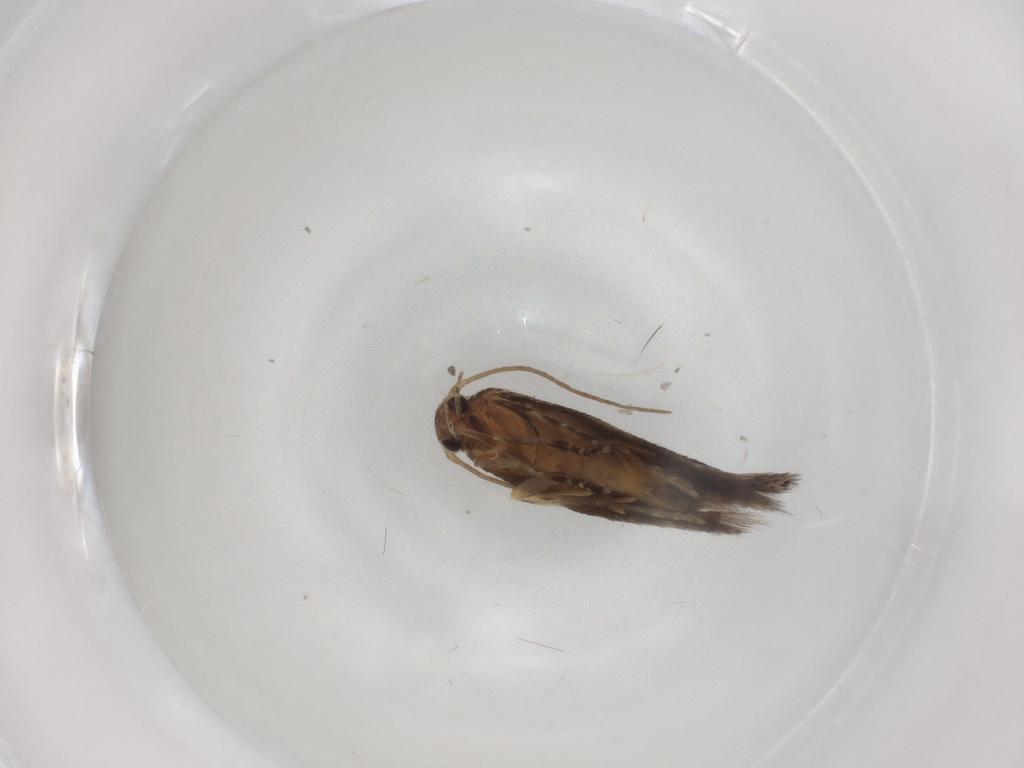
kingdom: Animalia
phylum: Arthropoda
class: Insecta
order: Lepidoptera
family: Elachistidae
